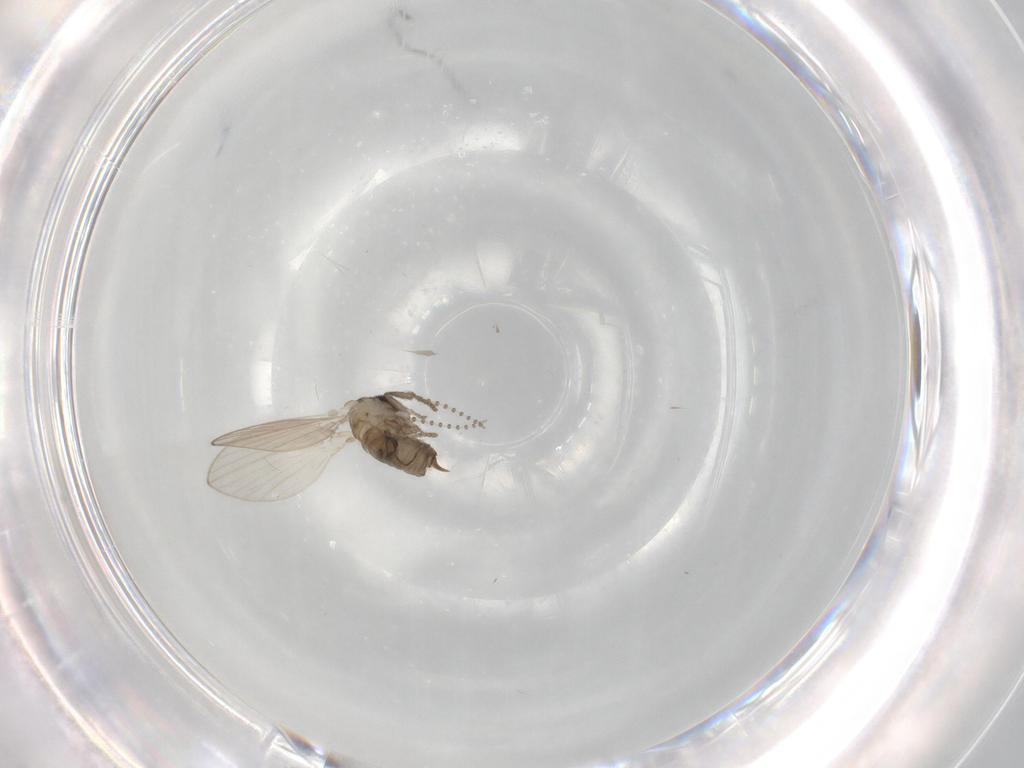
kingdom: Animalia
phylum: Arthropoda
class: Insecta
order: Diptera
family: Psychodidae
